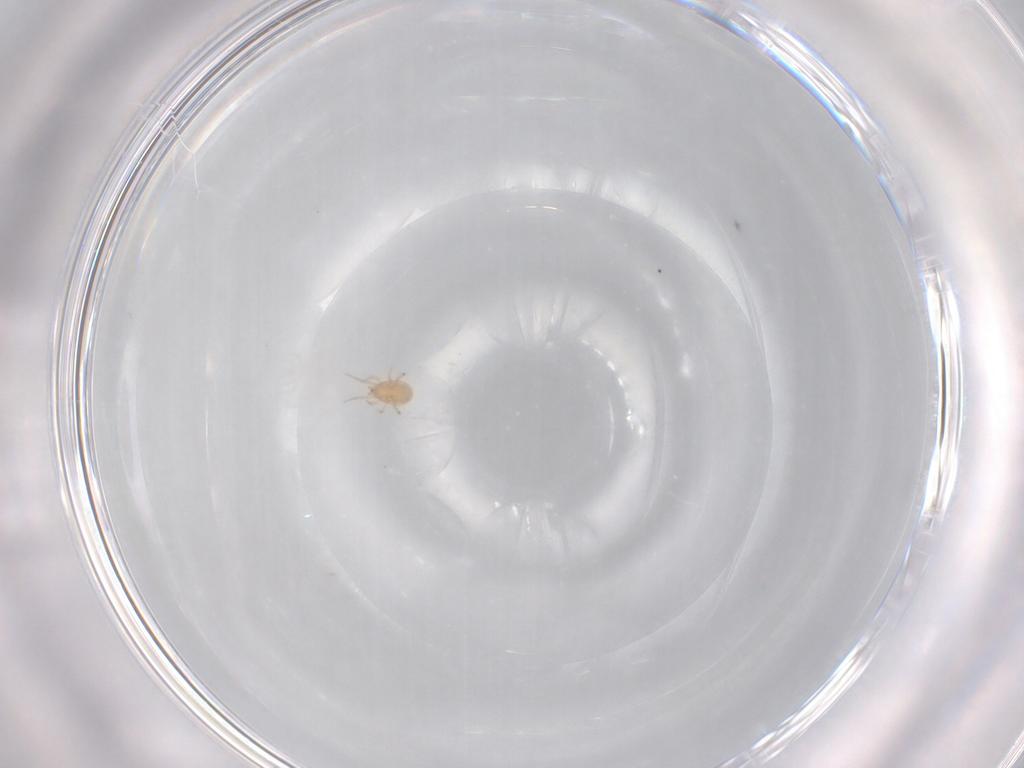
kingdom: Animalia
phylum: Arthropoda
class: Arachnida
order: Mesostigmata
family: Phytoseiidae
